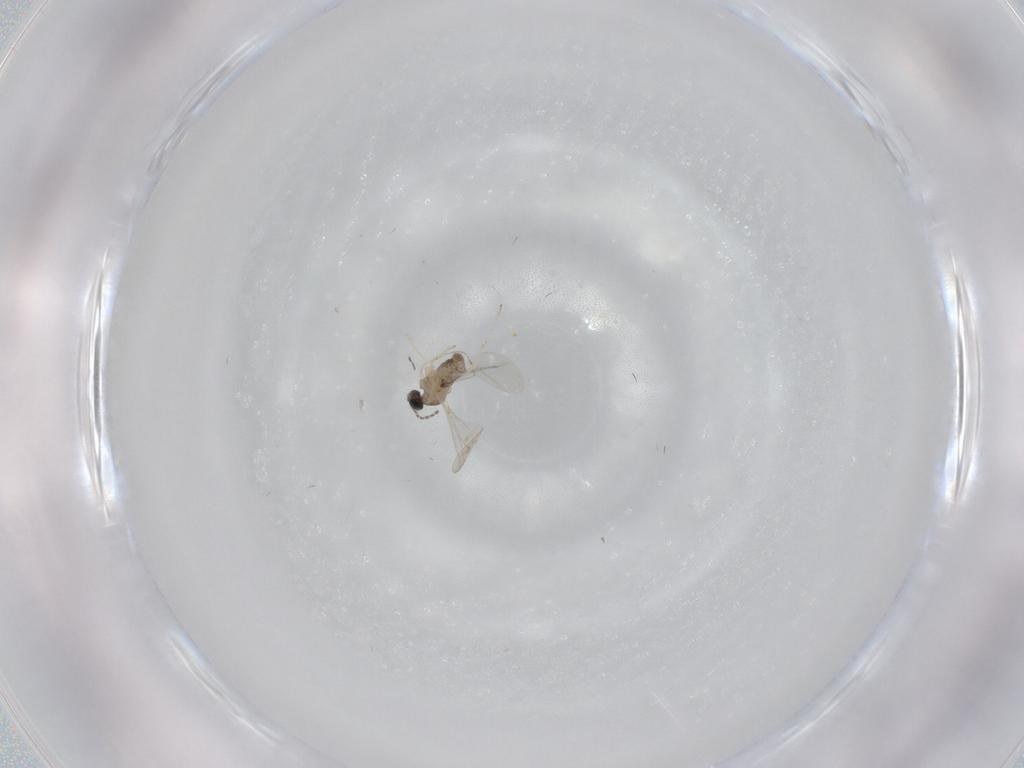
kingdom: Animalia
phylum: Arthropoda
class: Insecta
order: Diptera
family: Cecidomyiidae
